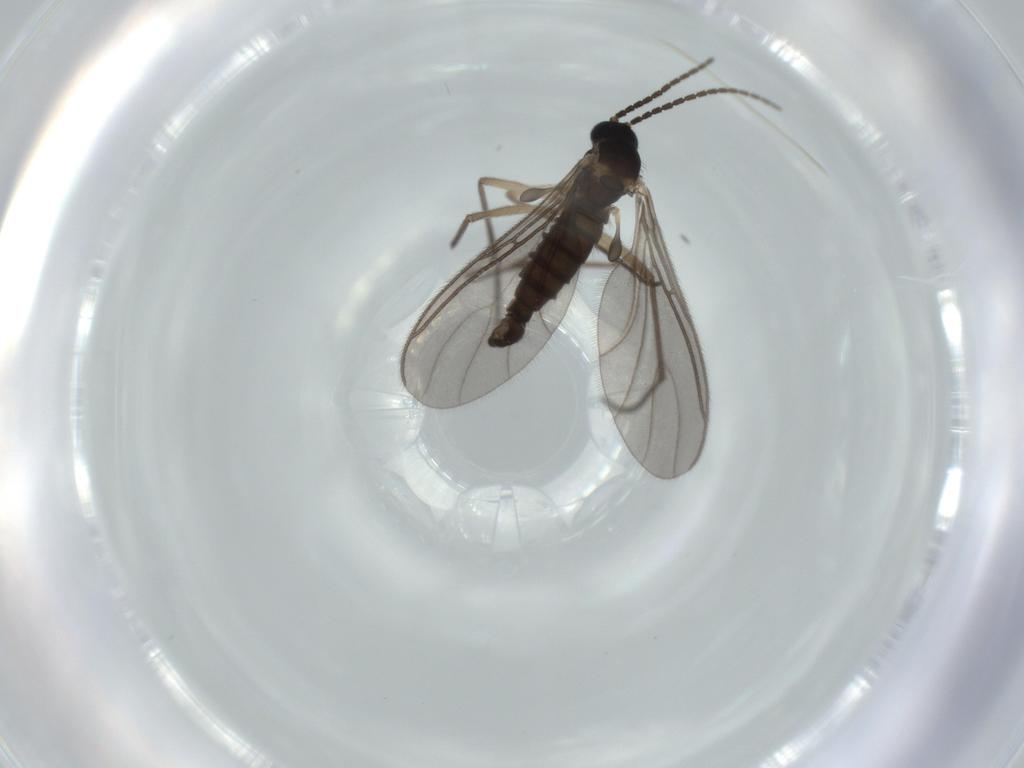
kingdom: Animalia
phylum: Arthropoda
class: Insecta
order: Diptera
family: Sciaridae
